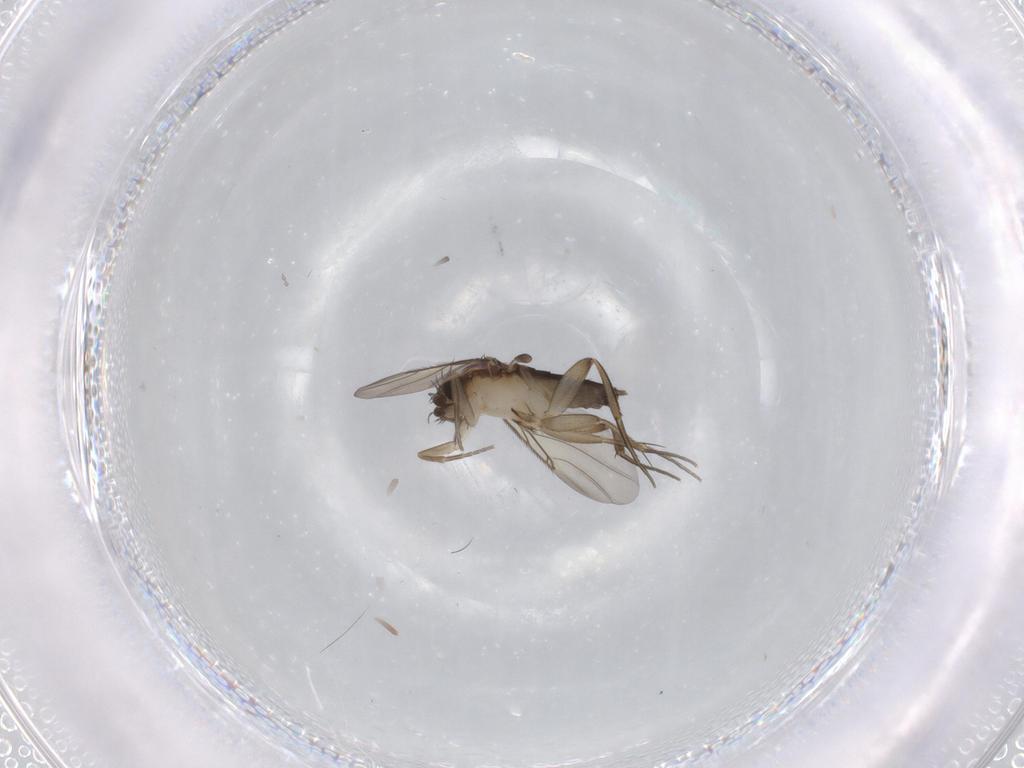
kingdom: Animalia
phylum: Arthropoda
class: Insecta
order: Diptera
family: Phoridae
